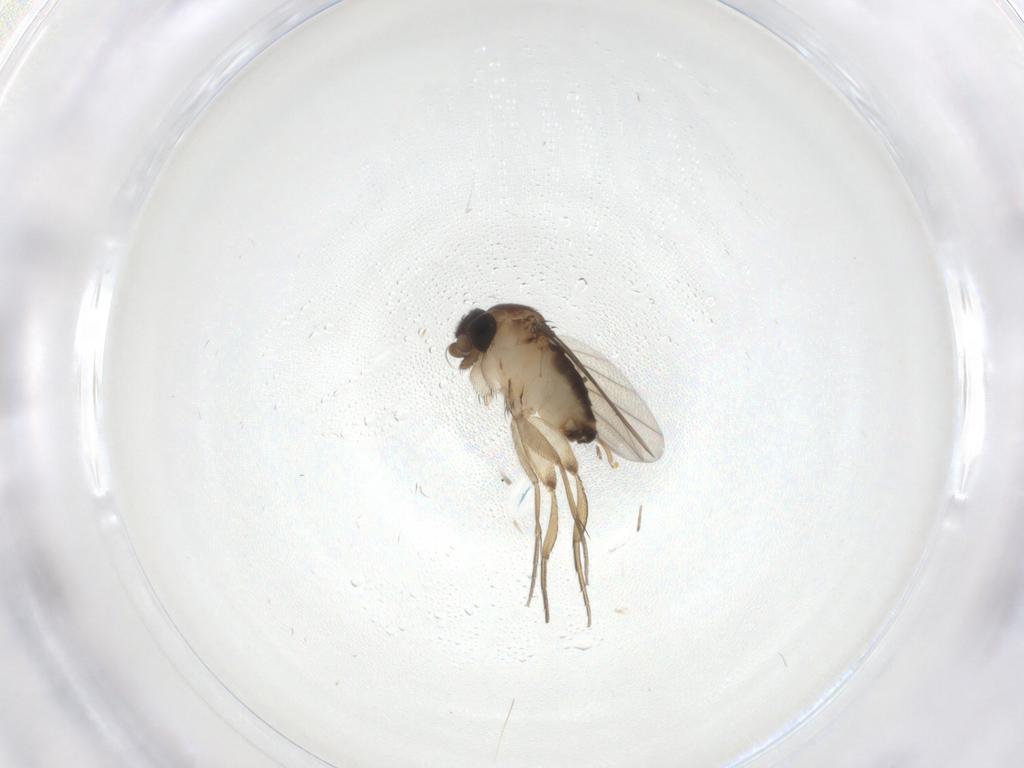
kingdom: Animalia
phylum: Arthropoda
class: Insecta
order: Diptera
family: Phoridae
